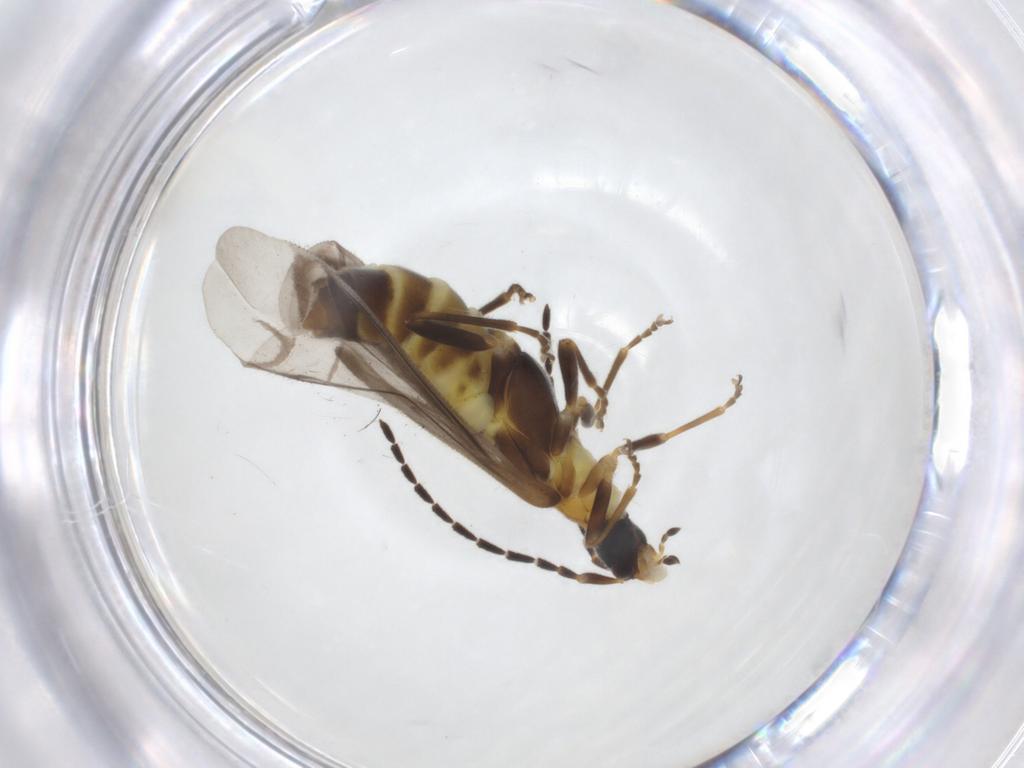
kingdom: Animalia
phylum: Arthropoda
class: Insecta
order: Coleoptera
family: Cantharidae
